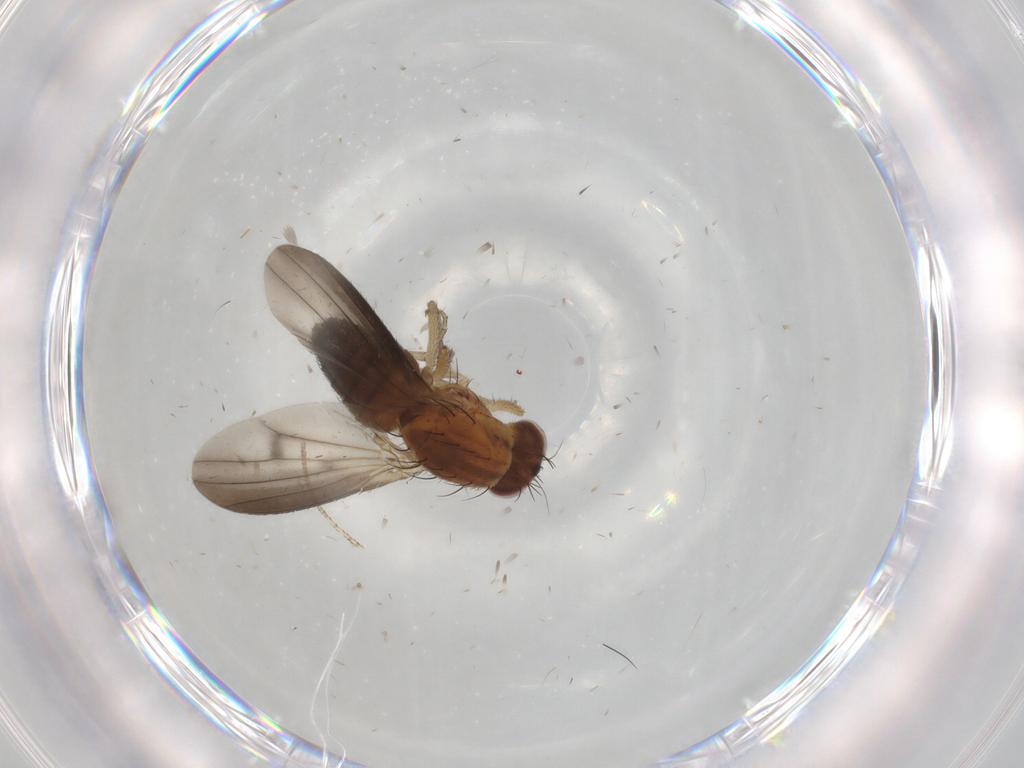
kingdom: Animalia
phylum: Arthropoda
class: Insecta
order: Diptera
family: Heleomyzidae
